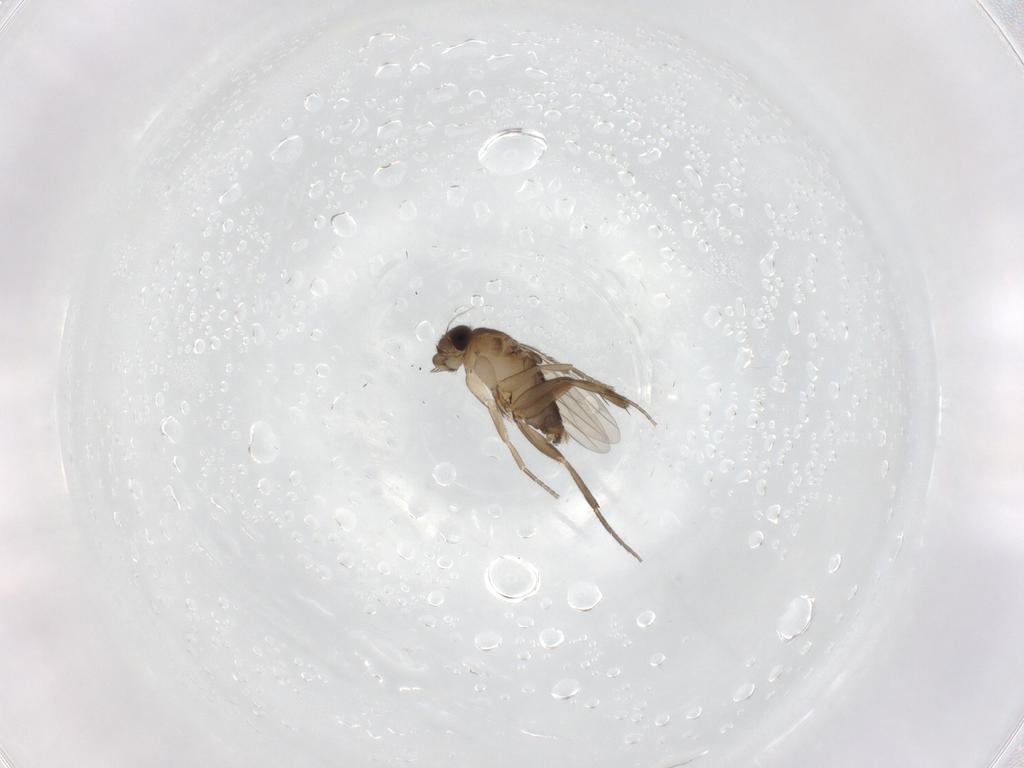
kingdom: Animalia
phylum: Arthropoda
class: Insecta
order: Diptera
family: Phoridae
